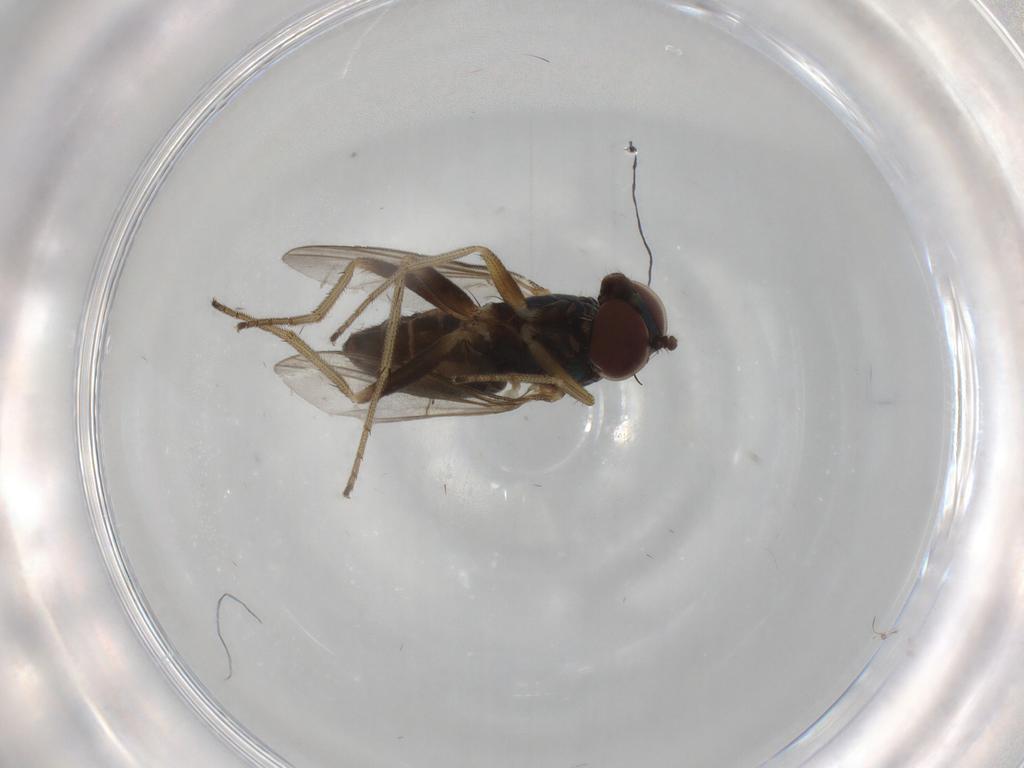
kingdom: Animalia
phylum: Arthropoda
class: Insecta
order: Diptera
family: Dolichopodidae
